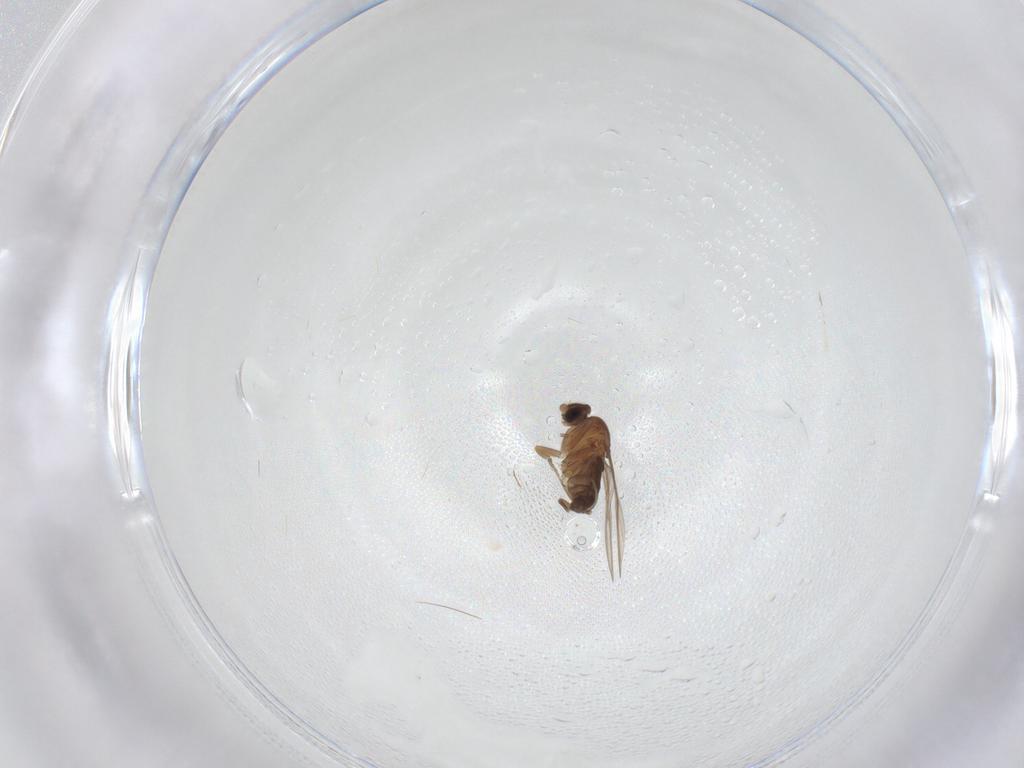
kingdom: Animalia
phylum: Arthropoda
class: Insecta
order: Diptera
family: Phoridae
